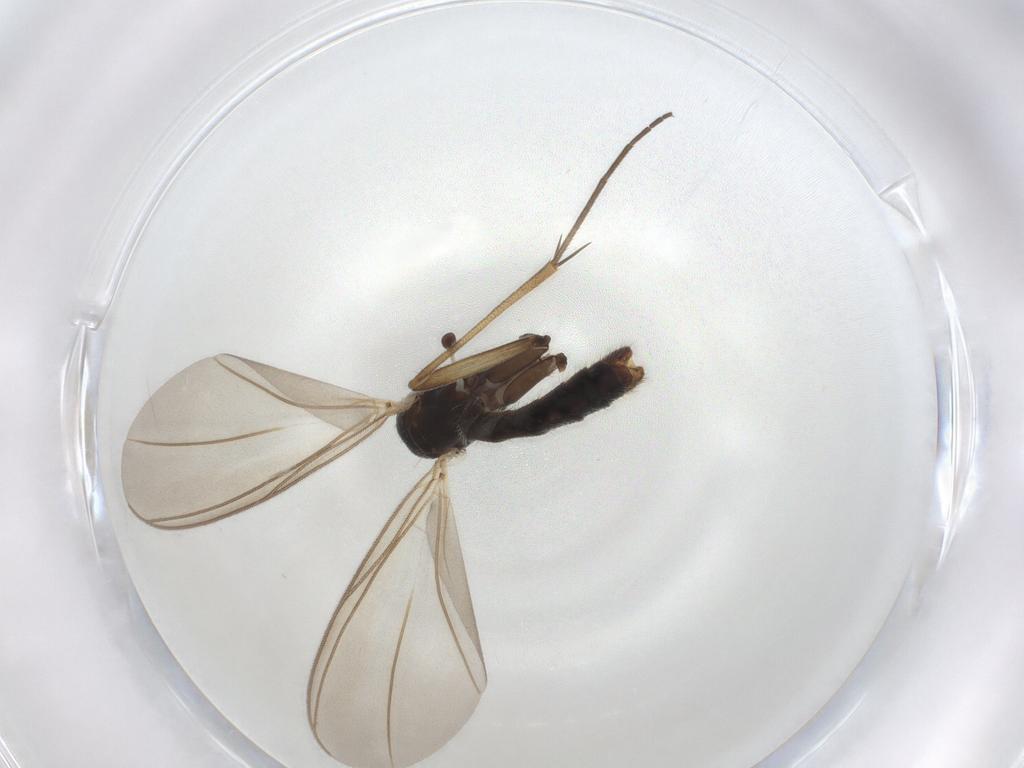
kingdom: Animalia
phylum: Arthropoda
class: Insecta
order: Diptera
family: Mycetophilidae
